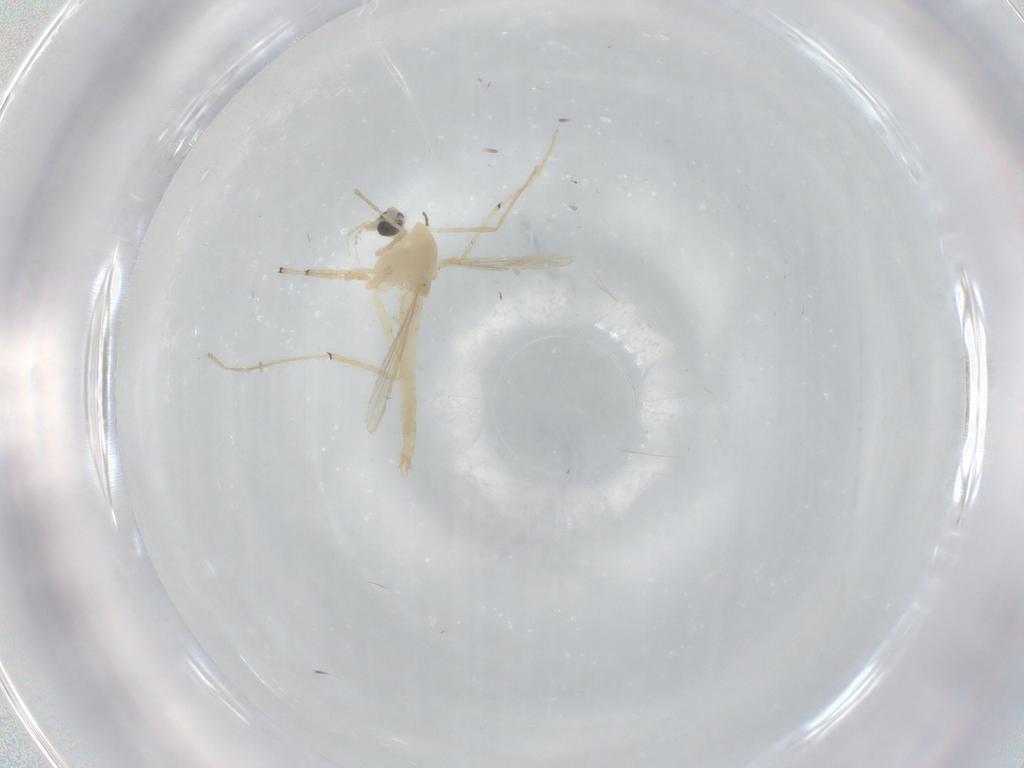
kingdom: Animalia
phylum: Arthropoda
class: Insecta
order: Diptera
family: Chironomidae
